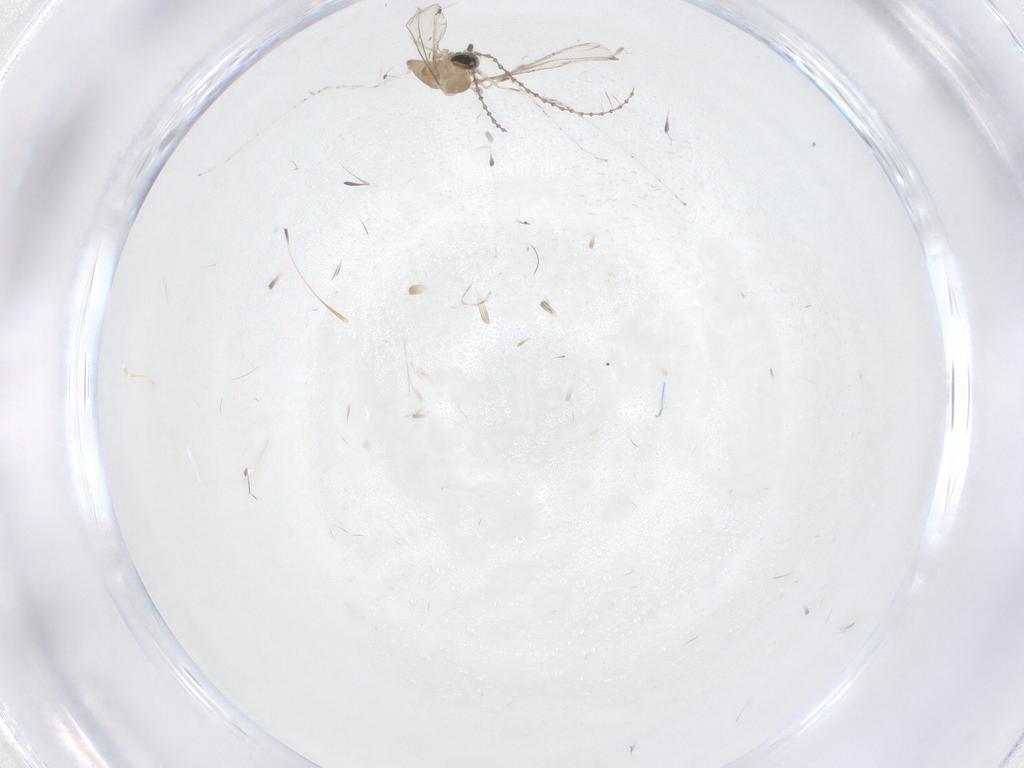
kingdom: Animalia
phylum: Arthropoda
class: Insecta
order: Diptera
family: Cecidomyiidae
